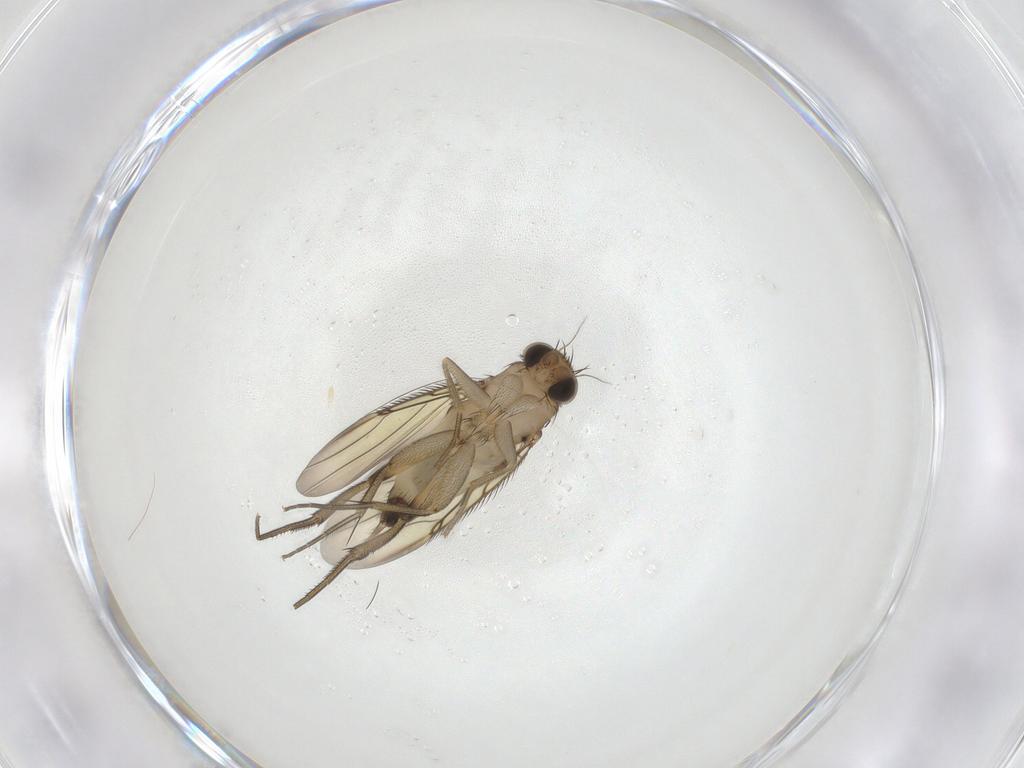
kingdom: Animalia
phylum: Arthropoda
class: Insecta
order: Diptera
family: Phoridae
